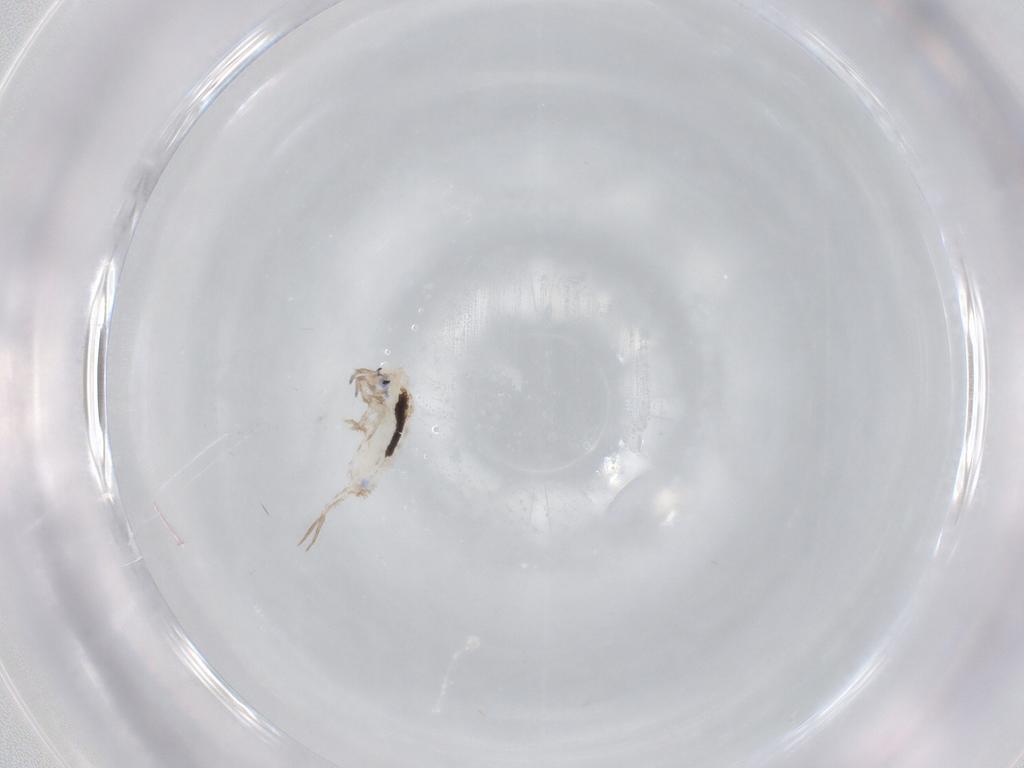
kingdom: Animalia
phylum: Arthropoda
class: Collembola
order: Entomobryomorpha
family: Entomobryidae
